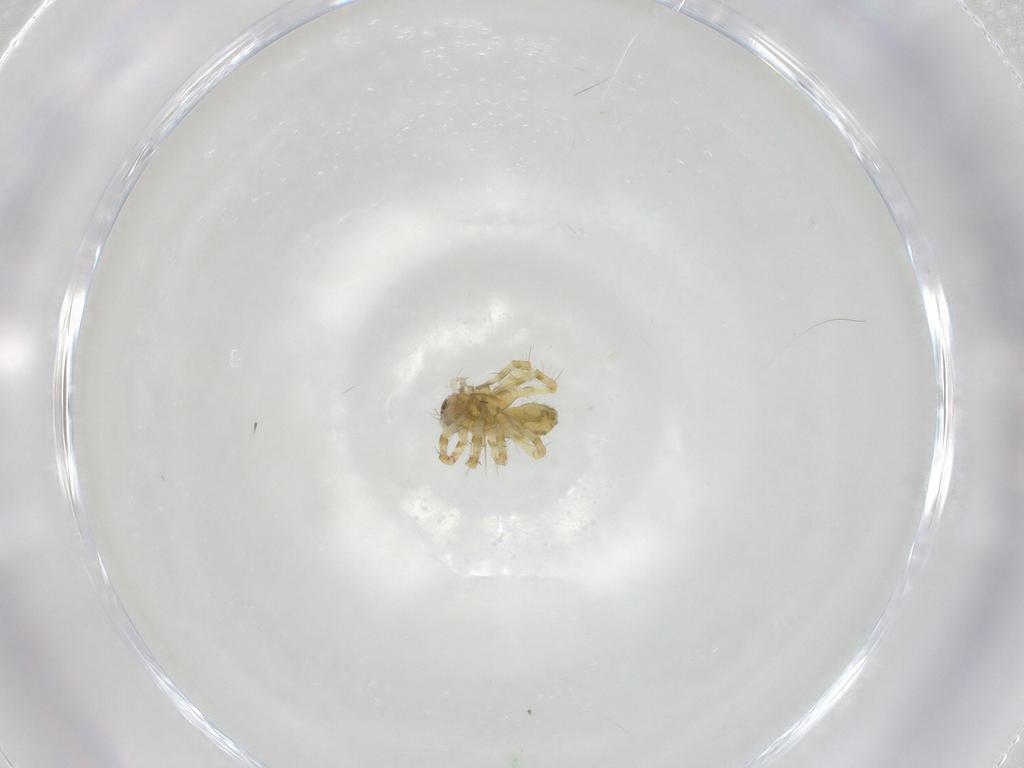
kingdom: Animalia
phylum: Arthropoda
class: Arachnida
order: Araneae
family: Pisauridae
